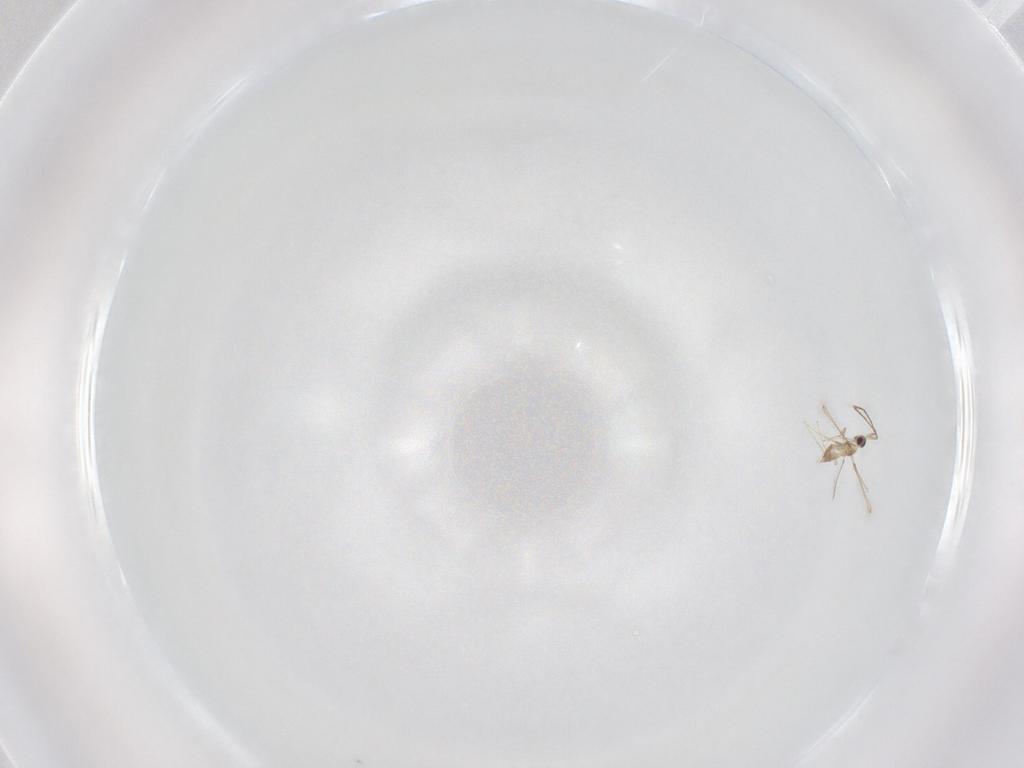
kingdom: Animalia
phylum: Arthropoda
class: Insecta
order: Hymenoptera
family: Mymaridae
